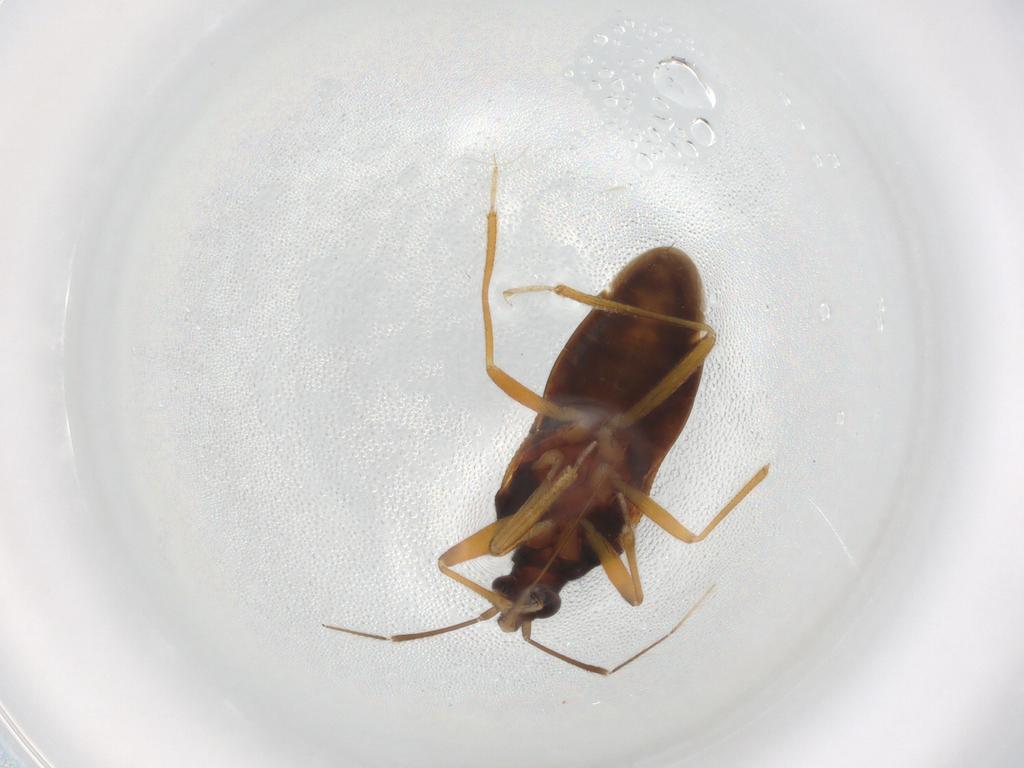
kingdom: Animalia
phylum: Arthropoda
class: Insecta
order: Hemiptera
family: Cicadellidae
